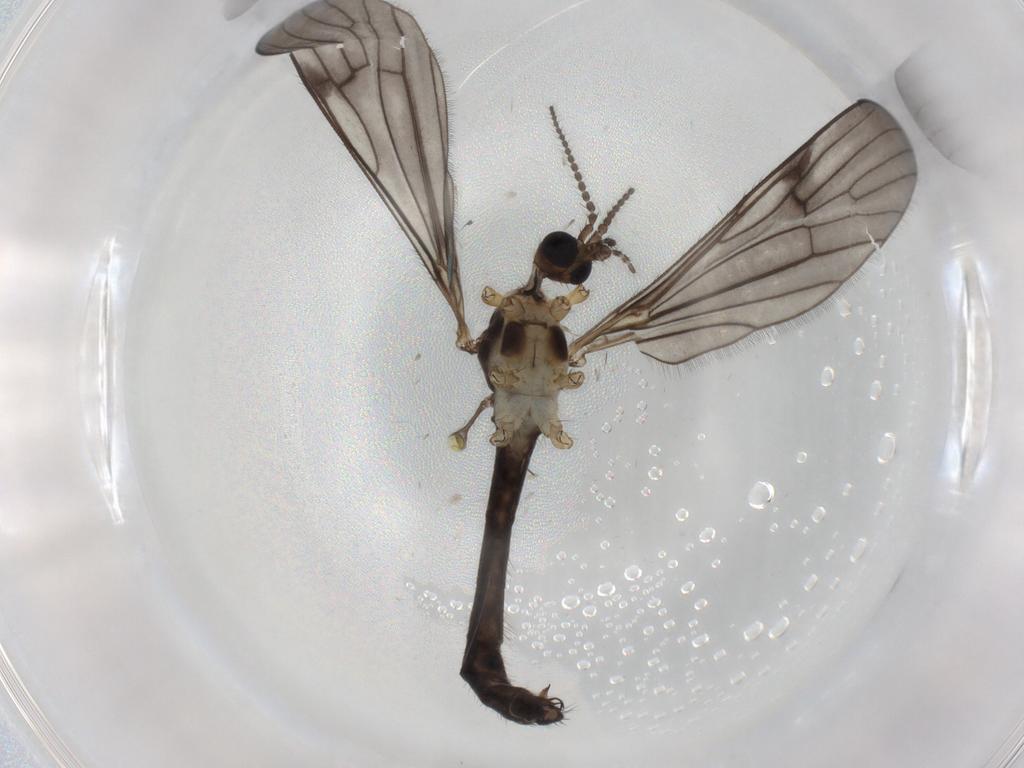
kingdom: Animalia
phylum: Arthropoda
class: Insecta
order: Diptera
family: Limoniidae
